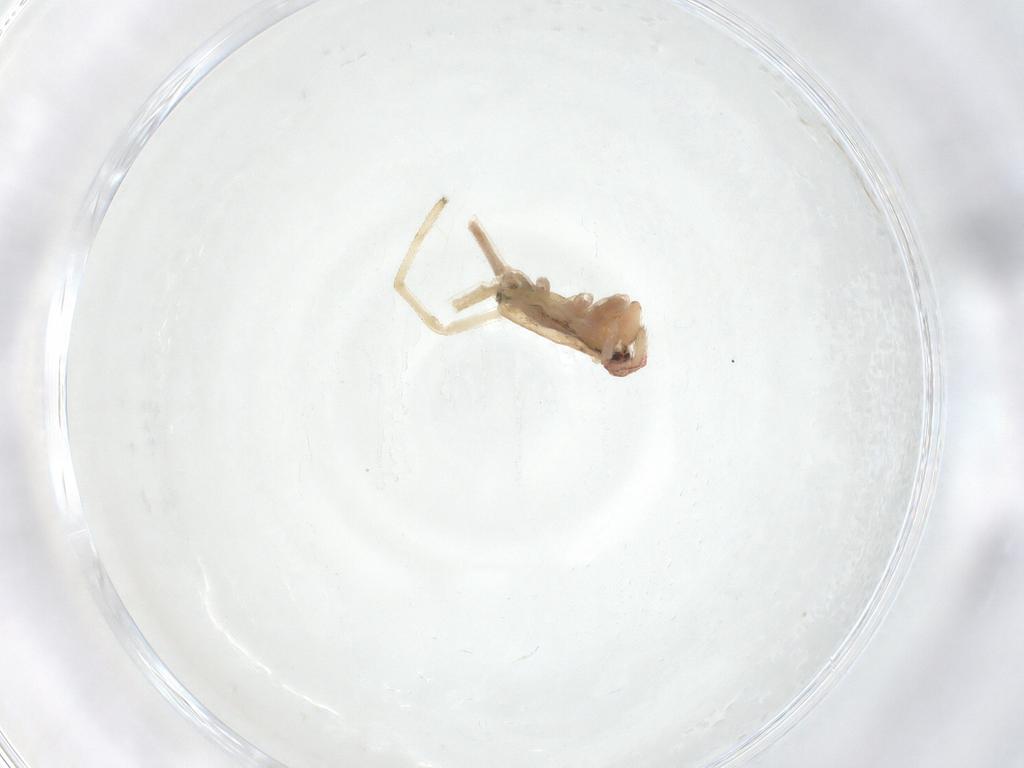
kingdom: Animalia
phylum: Arthropoda
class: Arachnida
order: Araneae
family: Tetragnathidae
